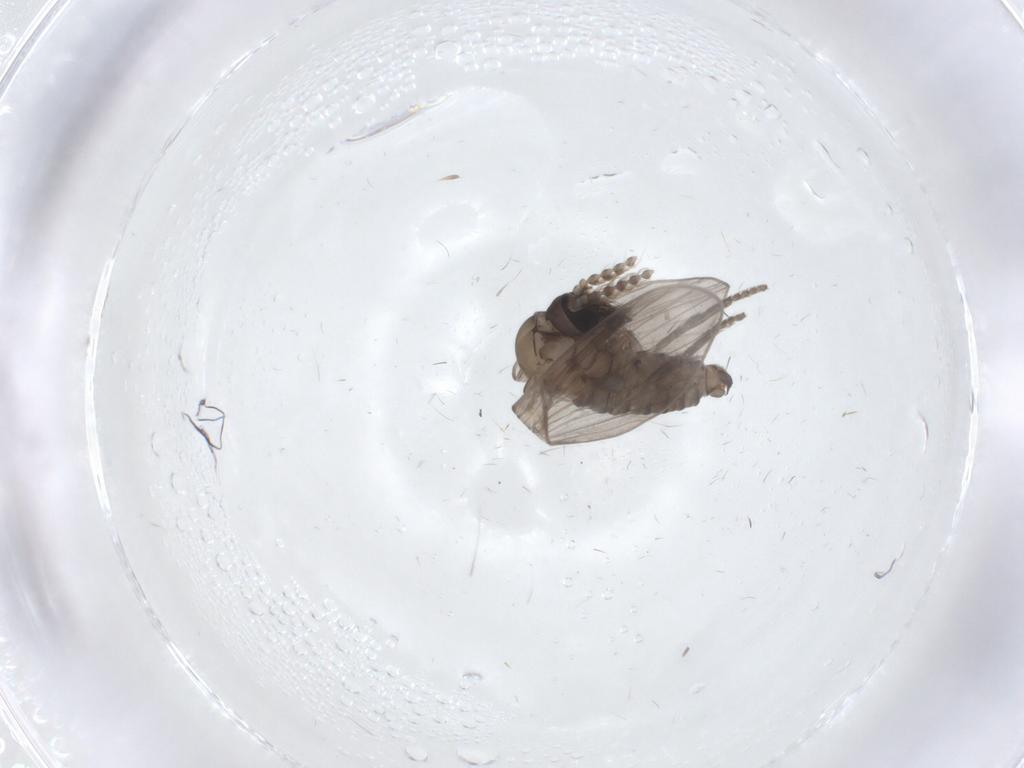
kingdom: Animalia
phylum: Arthropoda
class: Insecta
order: Diptera
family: Psychodidae
